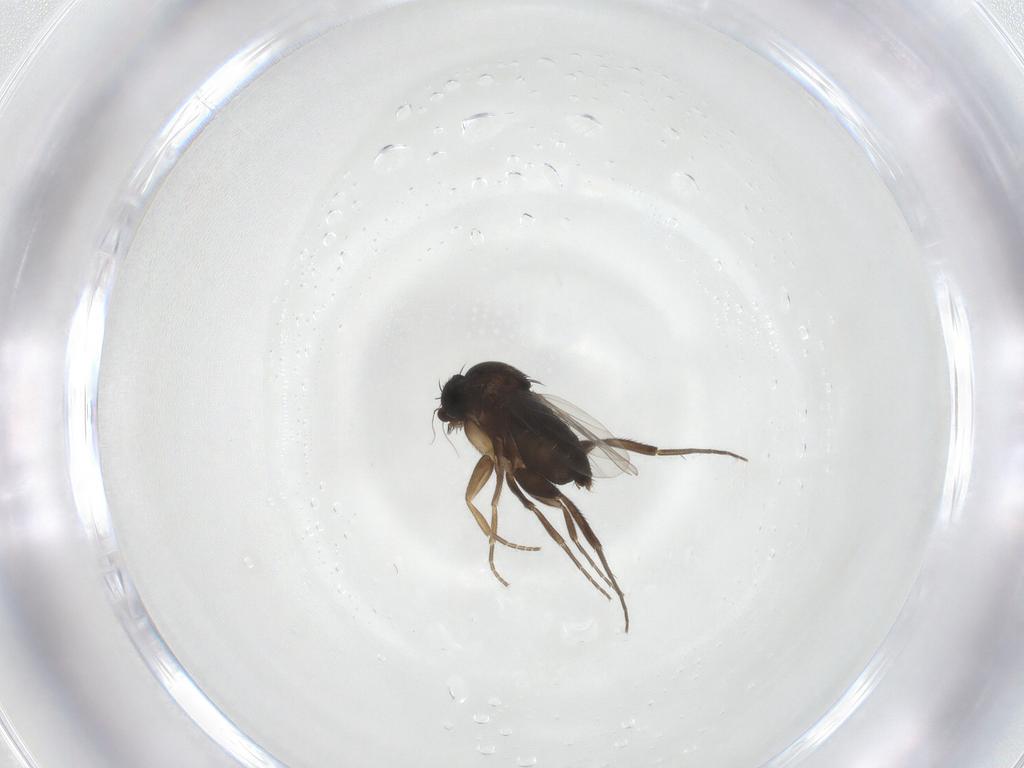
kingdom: Animalia
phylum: Arthropoda
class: Insecta
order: Diptera
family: Phoridae
